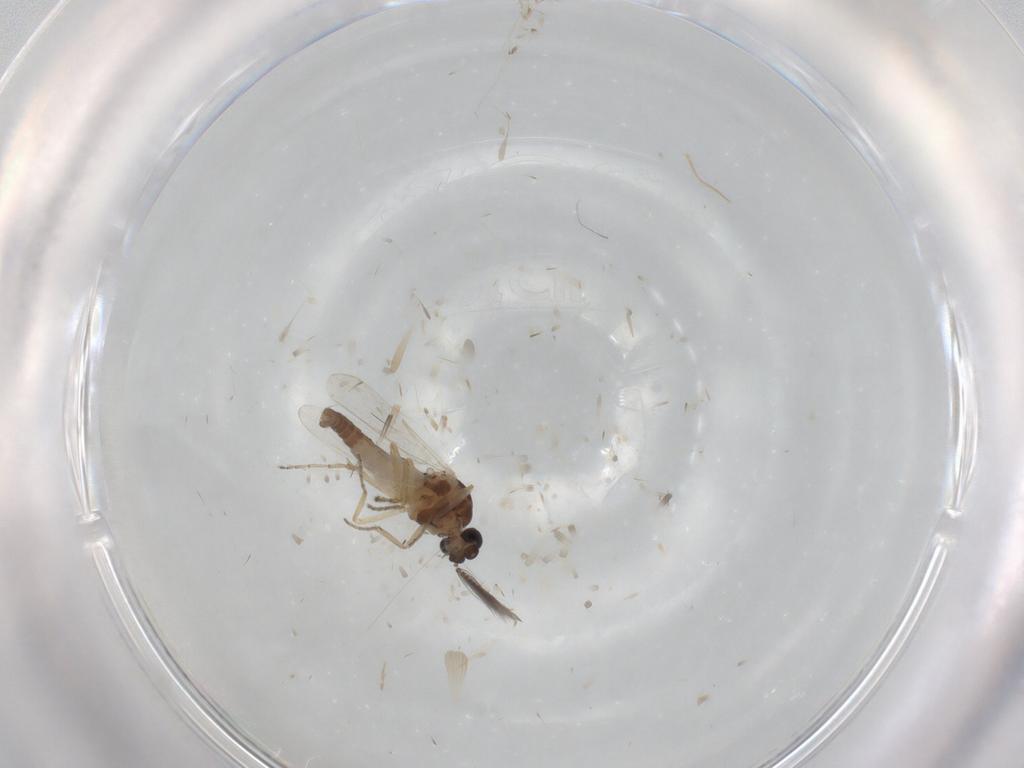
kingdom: Animalia
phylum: Arthropoda
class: Insecta
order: Diptera
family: Ceratopogonidae
